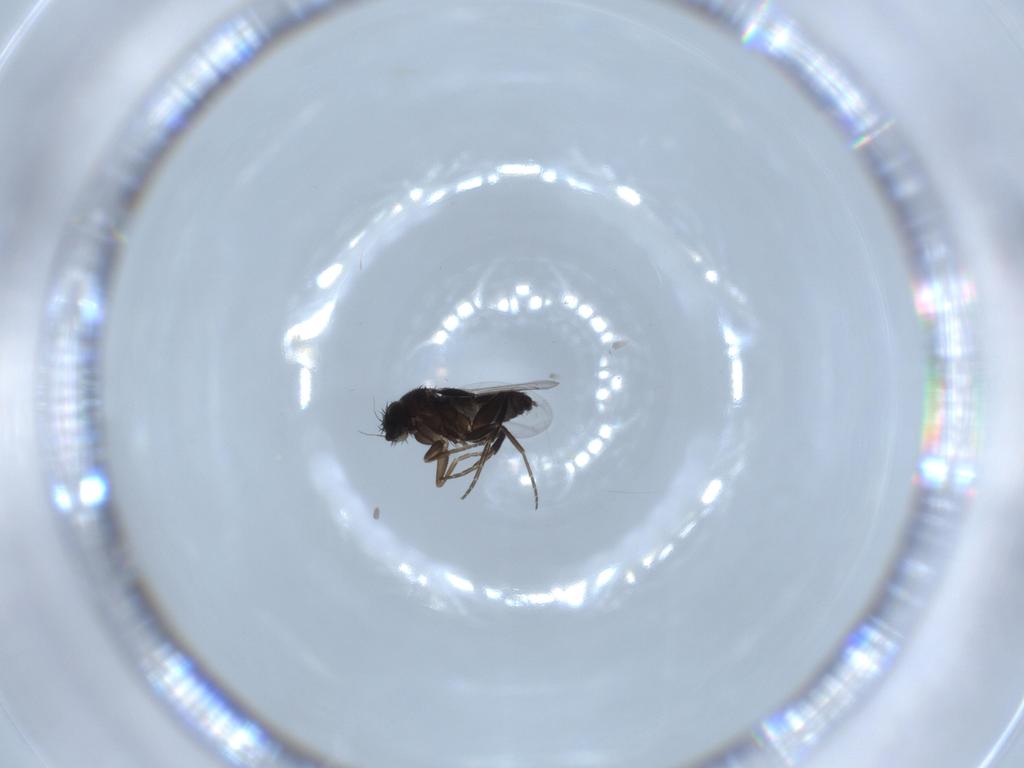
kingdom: Animalia
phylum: Arthropoda
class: Insecta
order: Diptera
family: Phoridae
